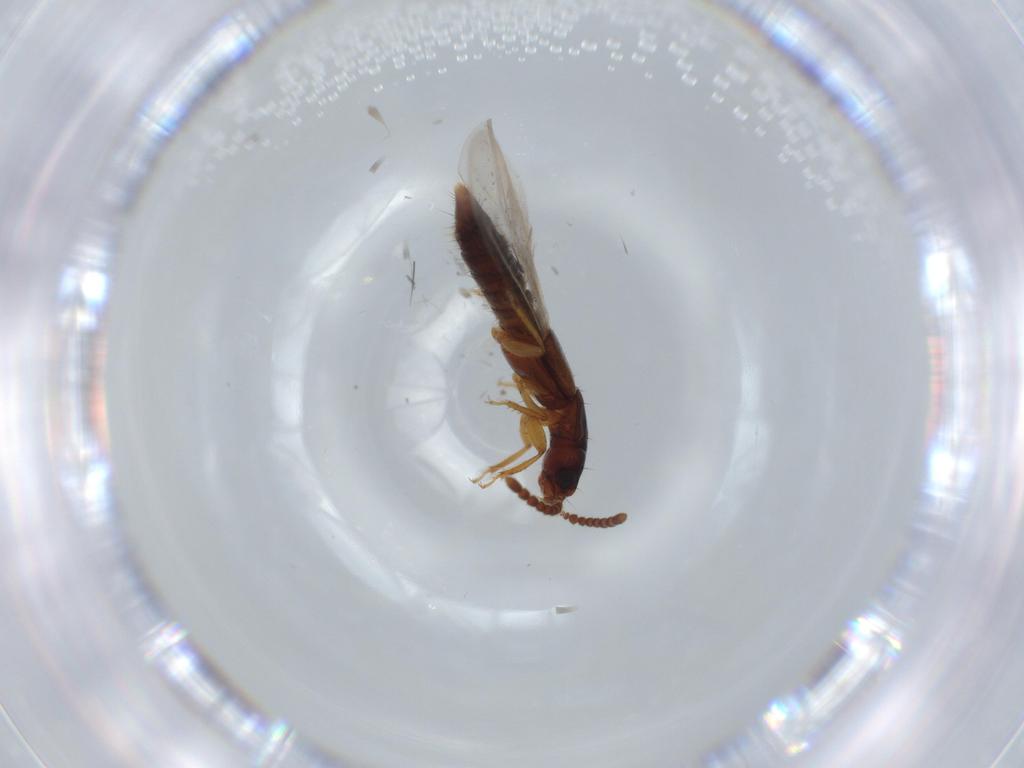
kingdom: Animalia
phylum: Arthropoda
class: Insecta
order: Coleoptera
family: Staphylinidae
